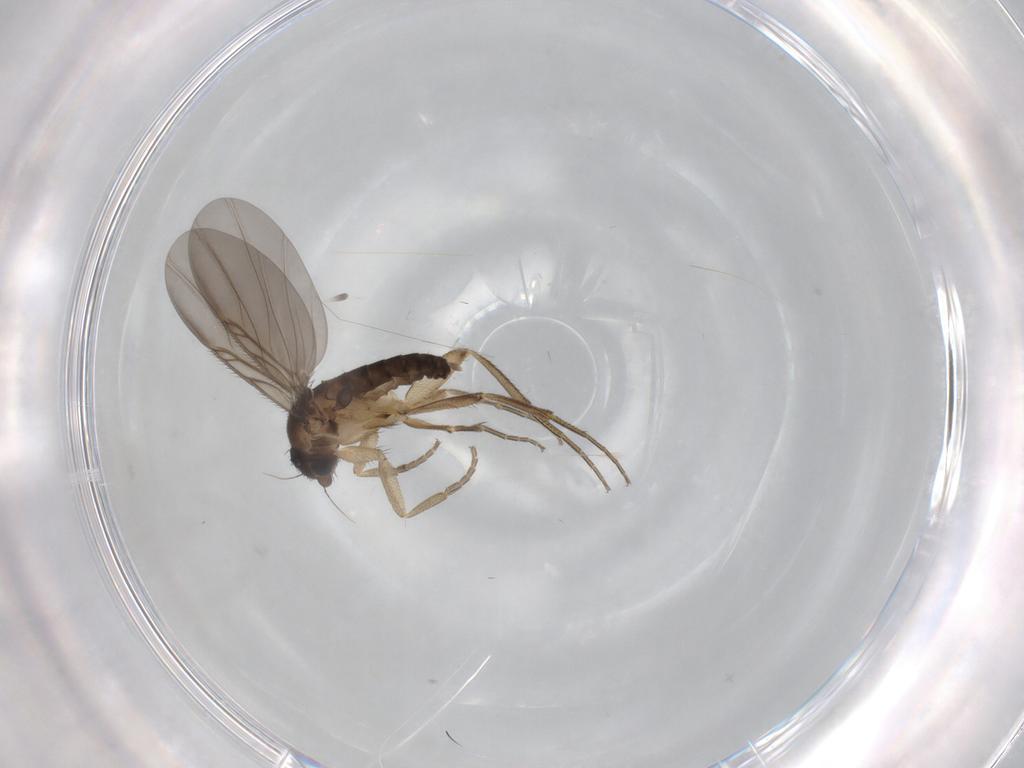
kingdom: Animalia
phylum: Arthropoda
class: Insecta
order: Diptera
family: Phoridae
